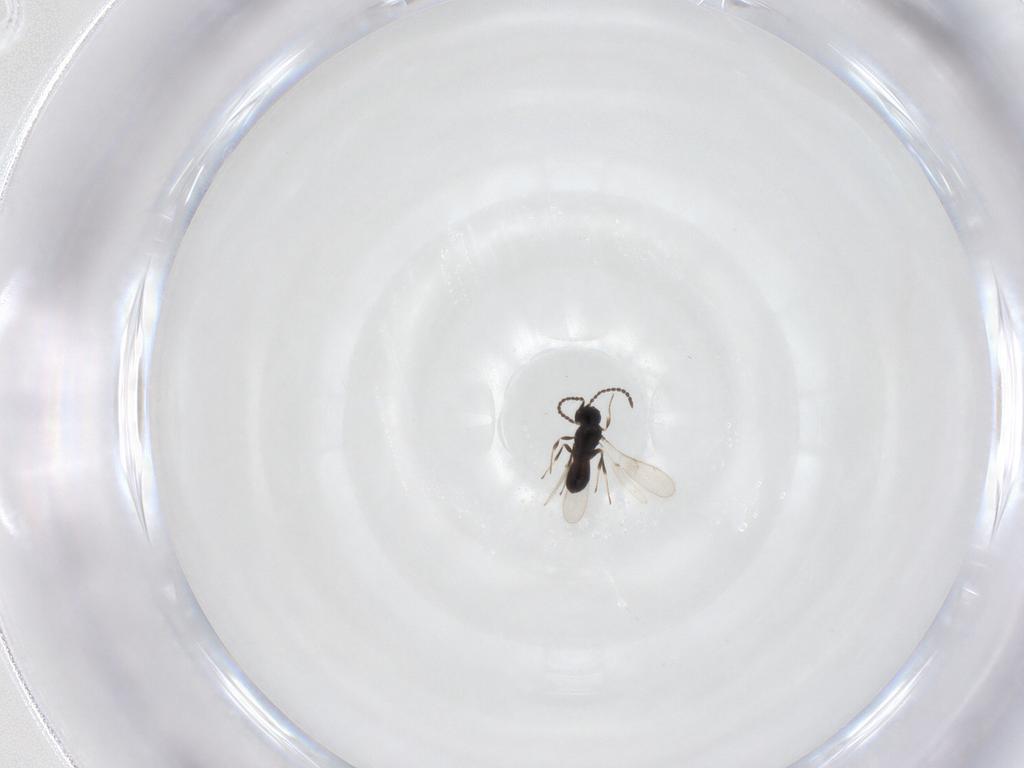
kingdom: Animalia
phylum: Arthropoda
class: Insecta
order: Hymenoptera
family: Scelionidae
